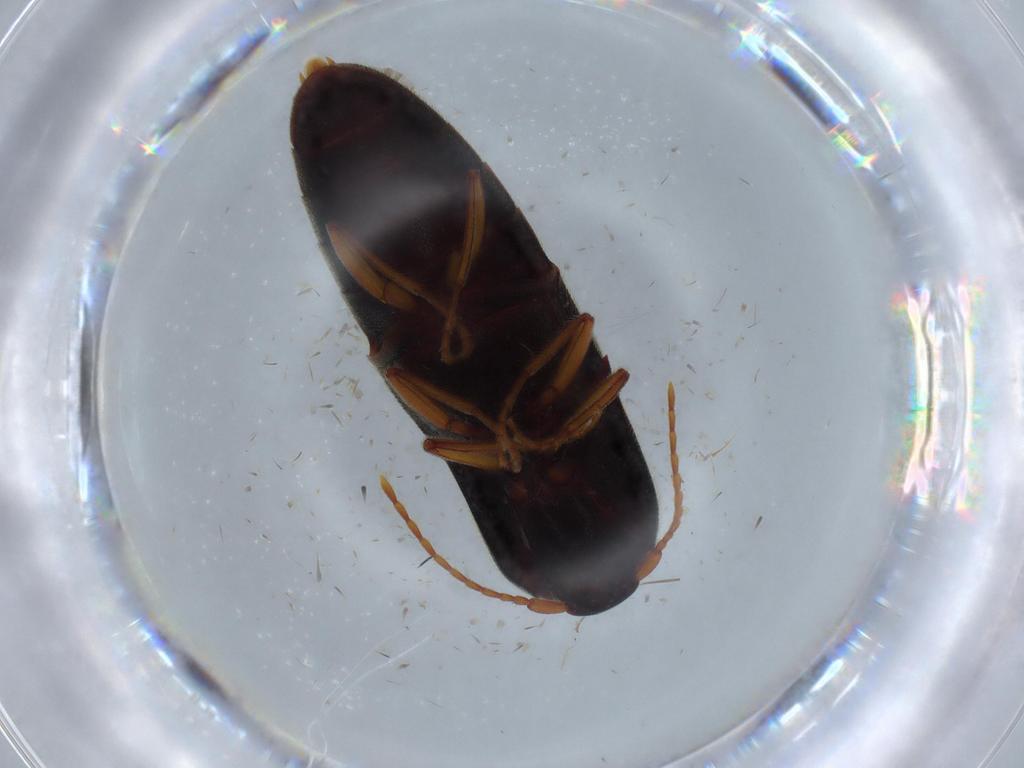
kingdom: Animalia
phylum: Arthropoda
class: Insecta
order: Coleoptera
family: Elateridae
